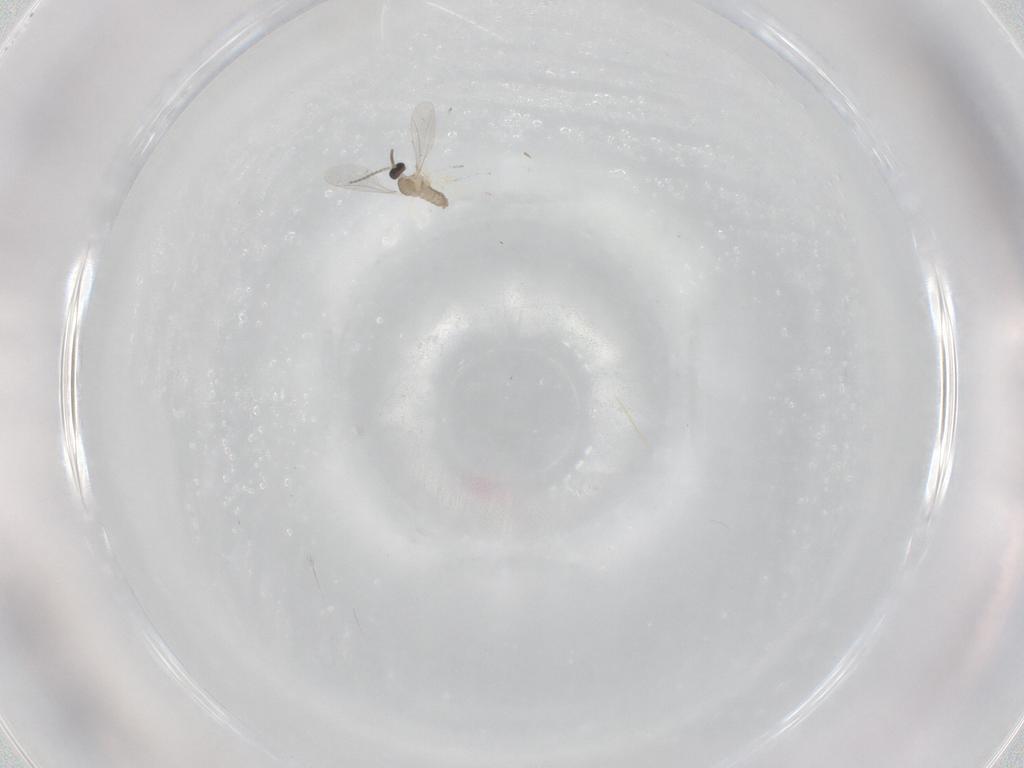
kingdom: Animalia
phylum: Arthropoda
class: Insecta
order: Diptera
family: Cecidomyiidae
